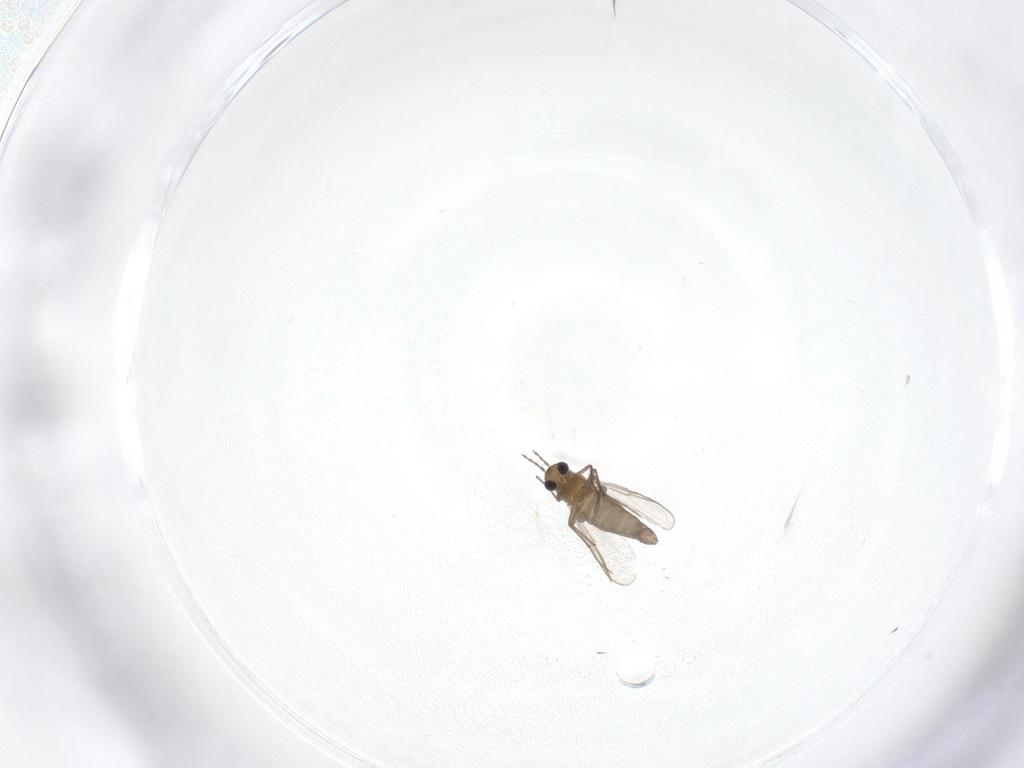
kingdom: Animalia
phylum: Arthropoda
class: Insecta
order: Diptera
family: Chironomidae
